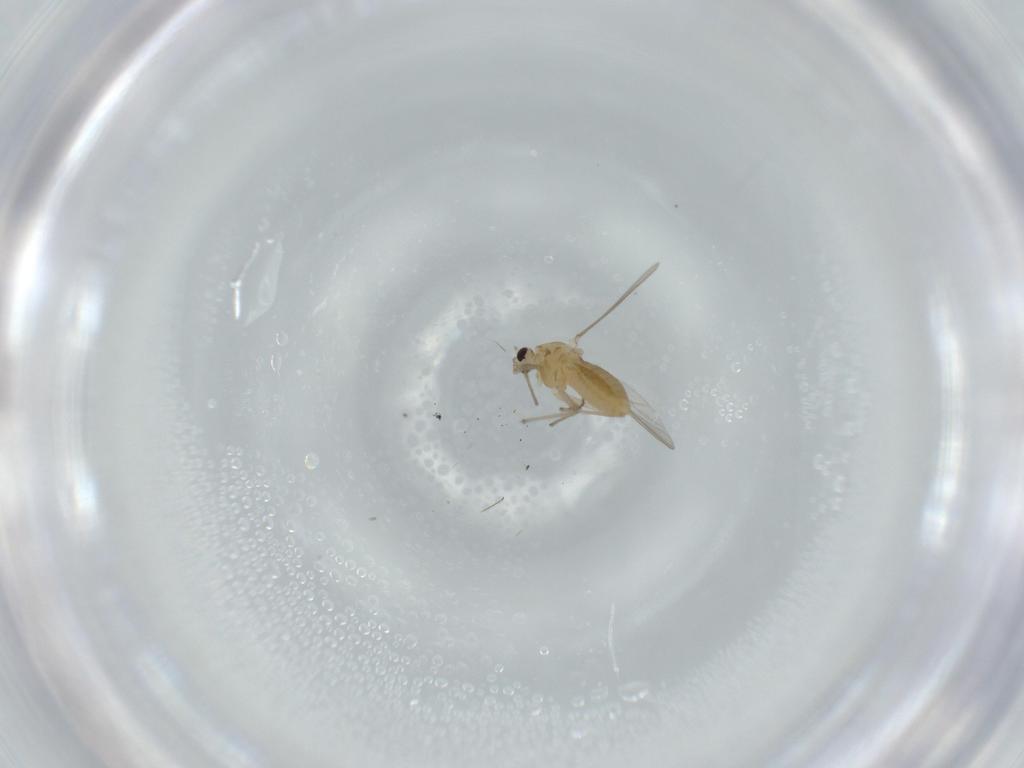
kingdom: Animalia
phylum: Arthropoda
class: Insecta
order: Diptera
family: Chironomidae
